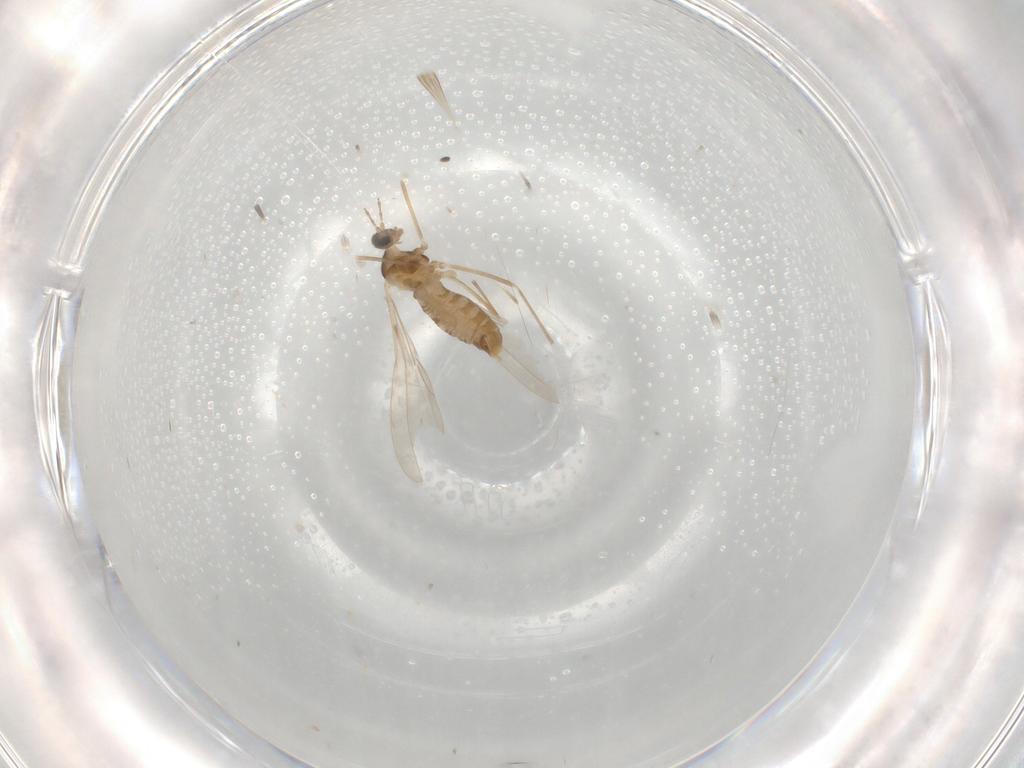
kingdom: Animalia
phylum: Arthropoda
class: Insecta
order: Diptera
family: Cecidomyiidae
